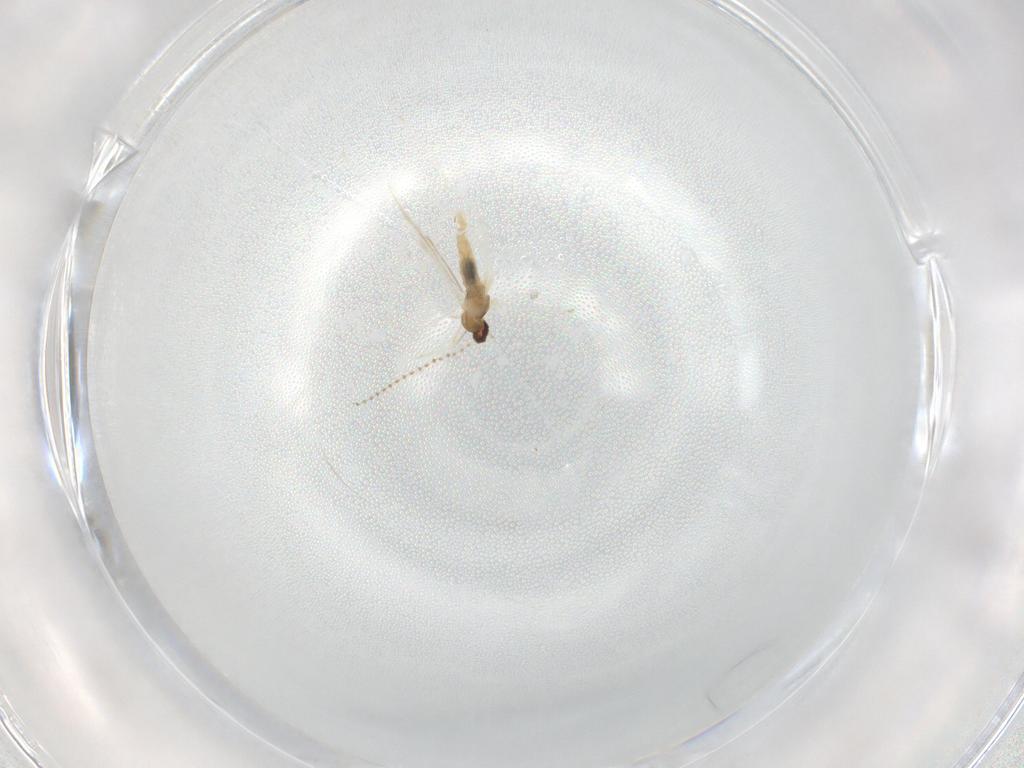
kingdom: Animalia
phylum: Arthropoda
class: Insecta
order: Diptera
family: Cecidomyiidae
